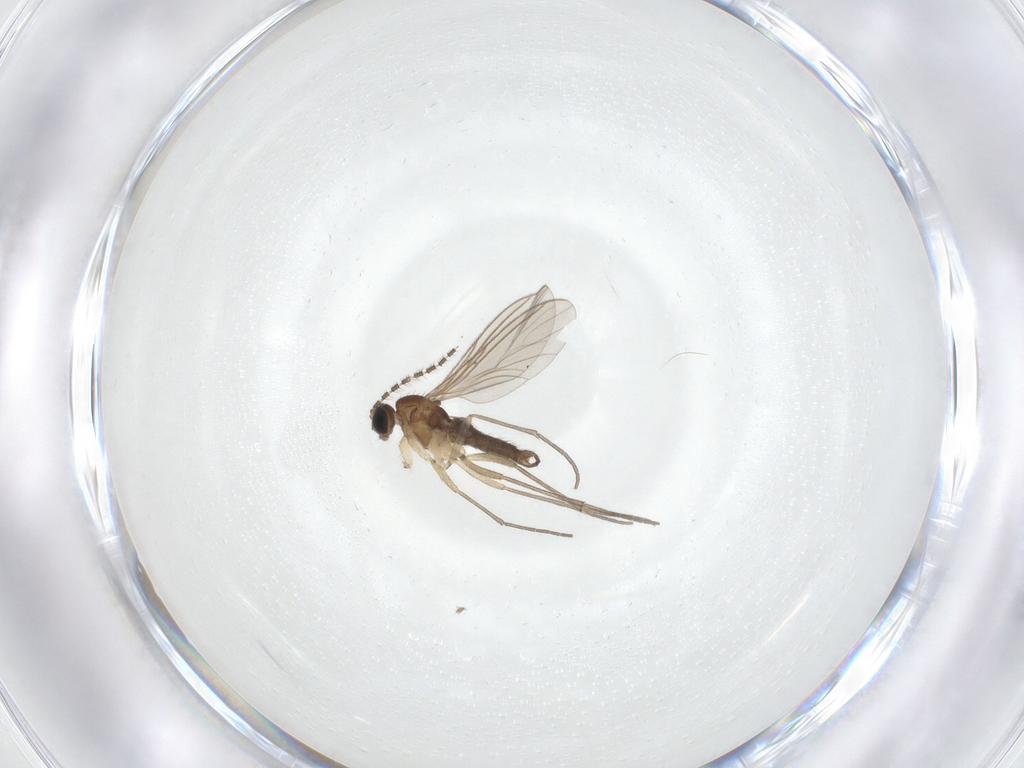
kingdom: Animalia
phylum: Arthropoda
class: Insecta
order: Diptera
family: Sciaridae
